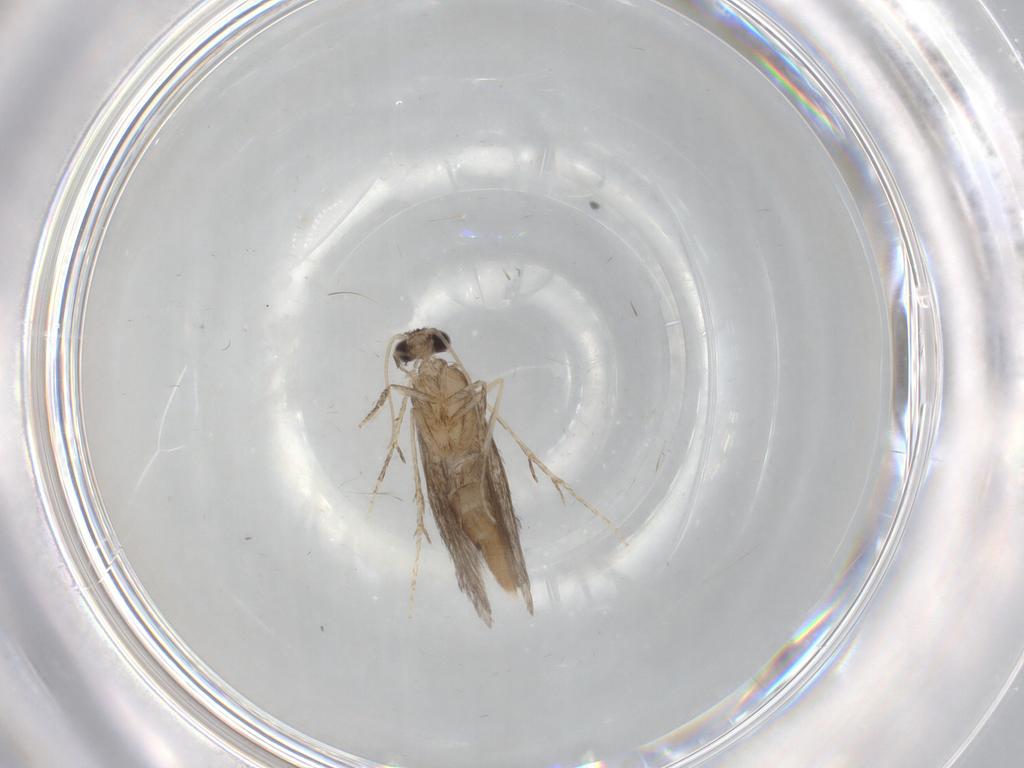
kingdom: Animalia
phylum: Arthropoda
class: Insecta
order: Trichoptera
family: Hydroptilidae
